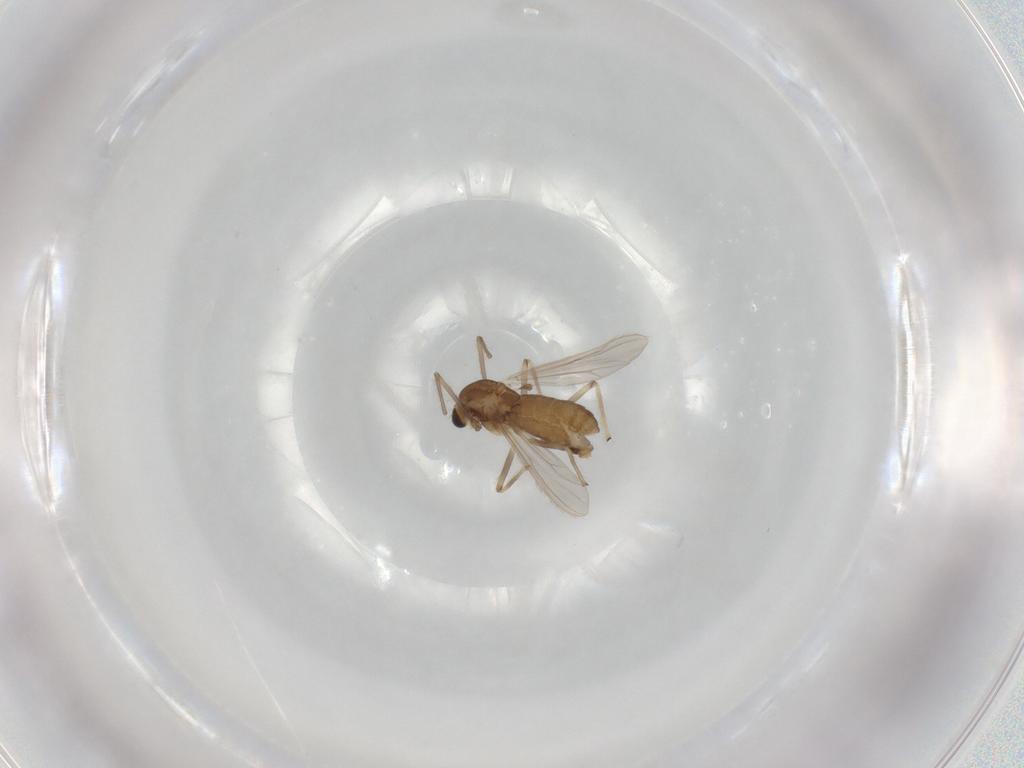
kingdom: Animalia
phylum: Arthropoda
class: Insecta
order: Diptera
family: Chironomidae
